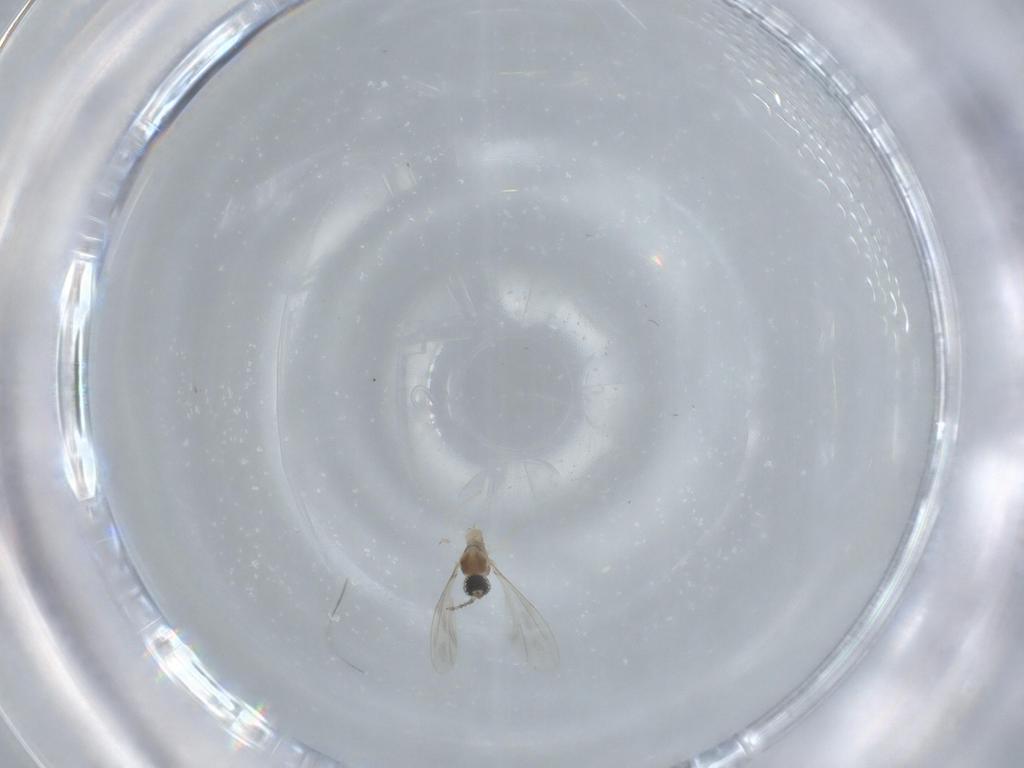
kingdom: Animalia
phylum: Arthropoda
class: Insecta
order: Diptera
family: Cecidomyiidae
